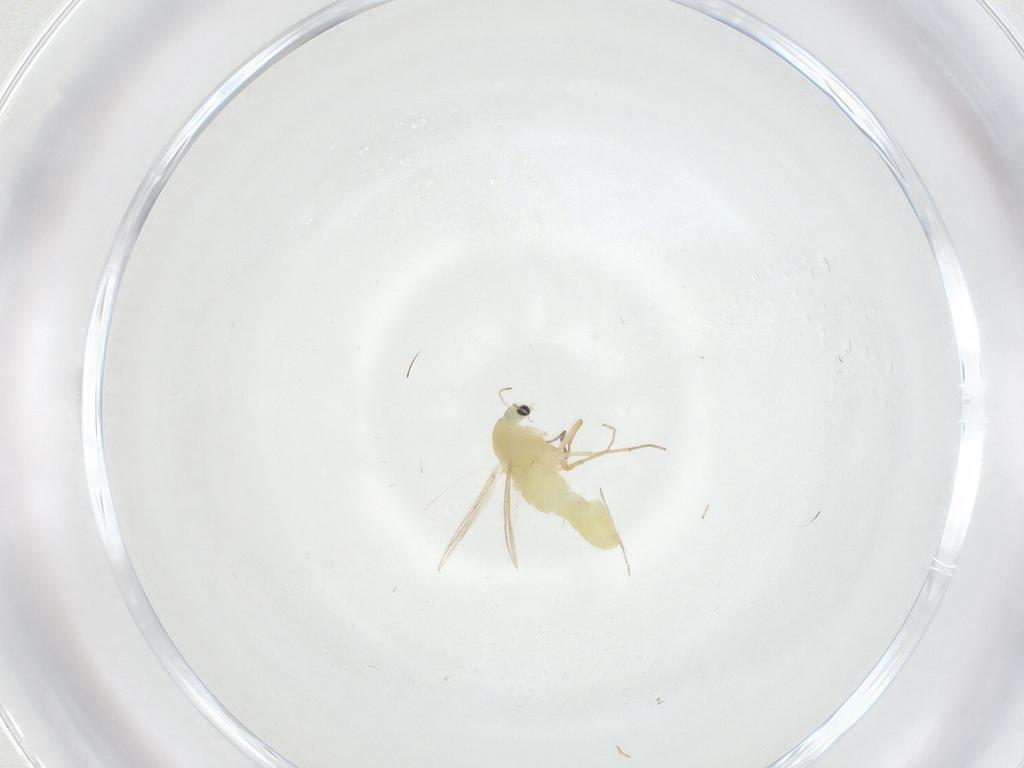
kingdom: Animalia
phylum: Arthropoda
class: Insecta
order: Diptera
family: Chironomidae
